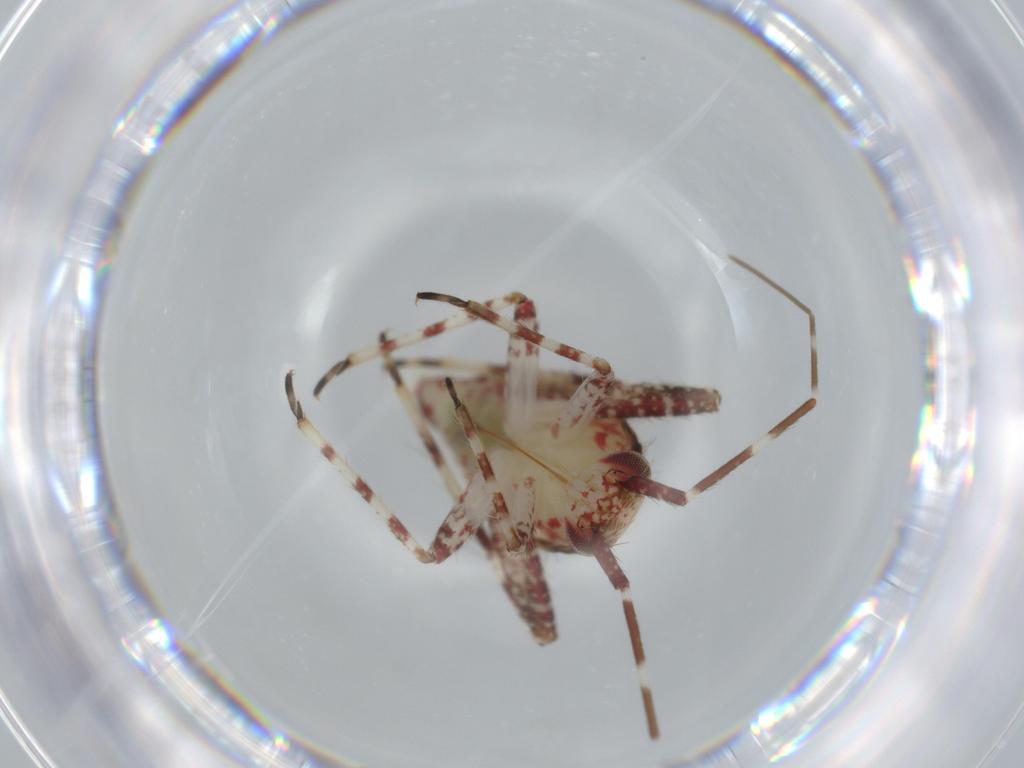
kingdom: Animalia
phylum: Arthropoda
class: Insecta
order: Hemiptera
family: Miridae
